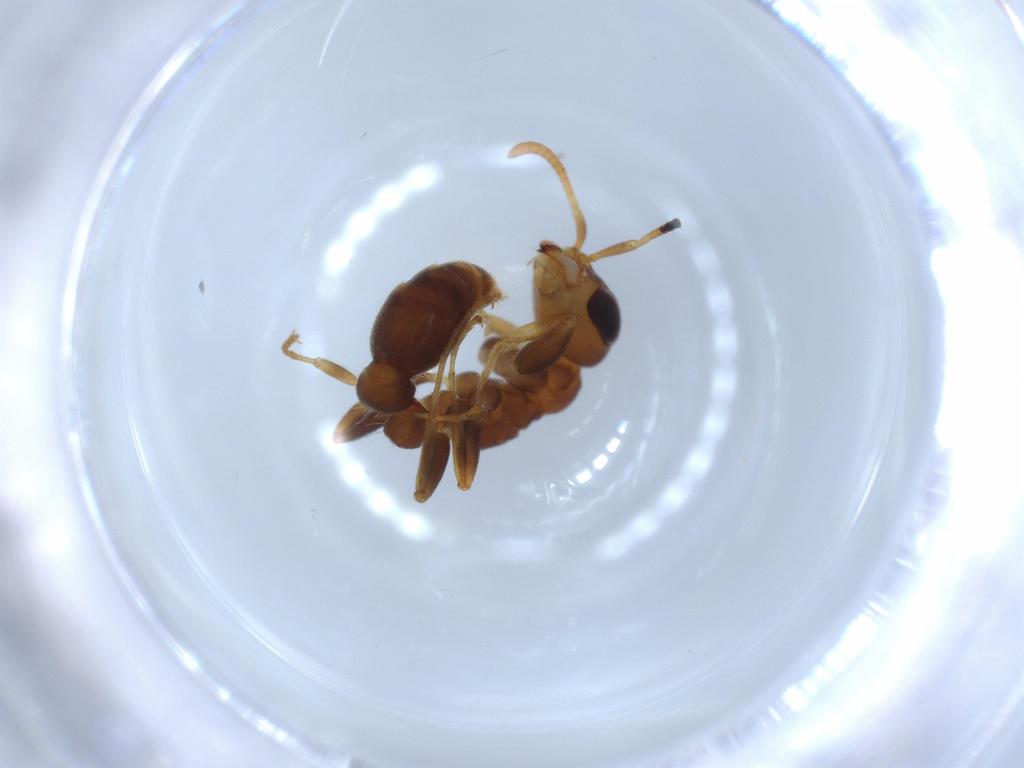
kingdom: Animalia
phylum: Arthropoda
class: Insecta
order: Hymenoptera
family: Formicidae
